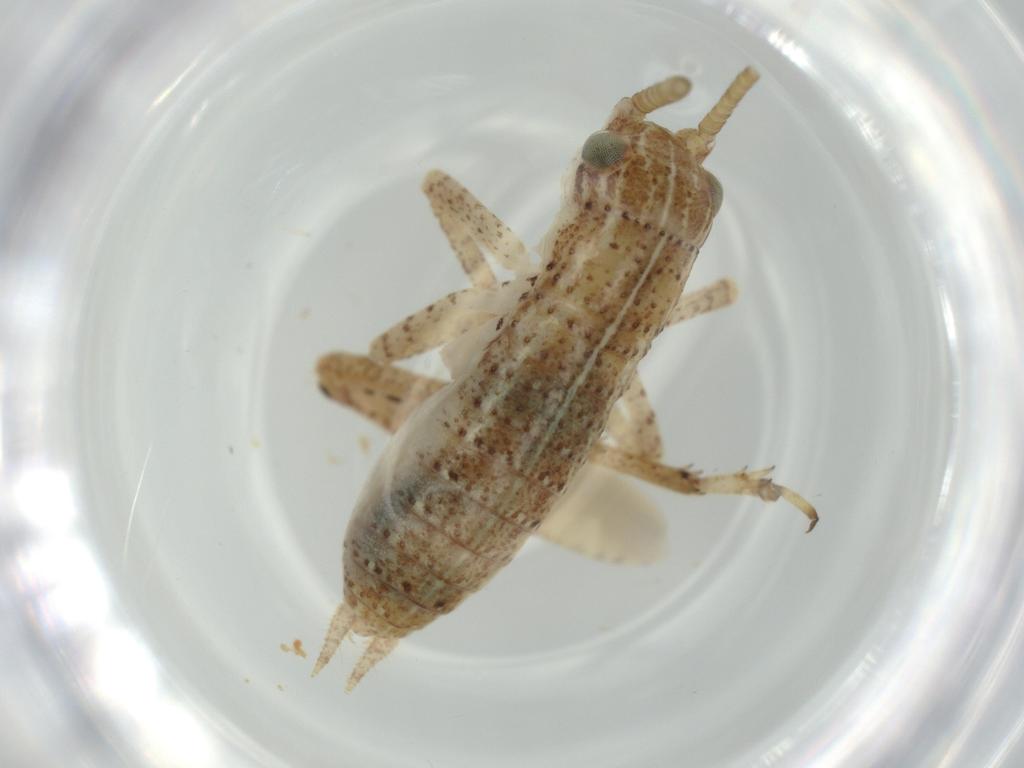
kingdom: Animalia
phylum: Arthropoda
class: Insecta
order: Orthoptera
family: Gryllidae
